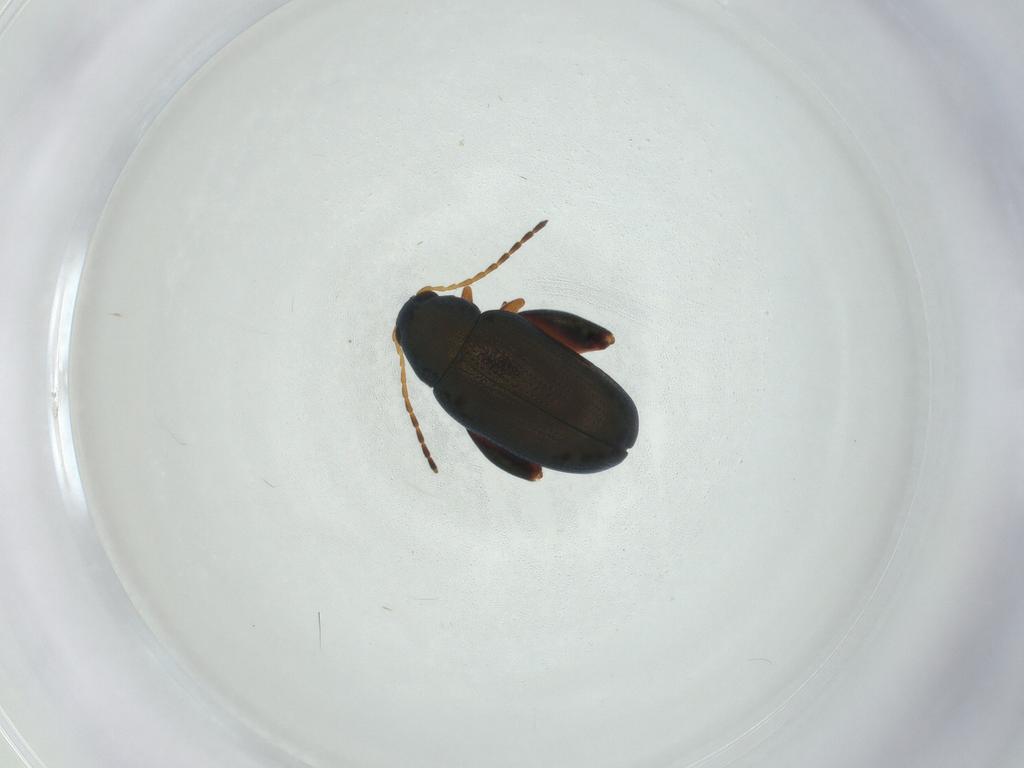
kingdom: Animalia
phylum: Arthropoda
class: Insecta
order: Coleoptera
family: Chrysomelidae
